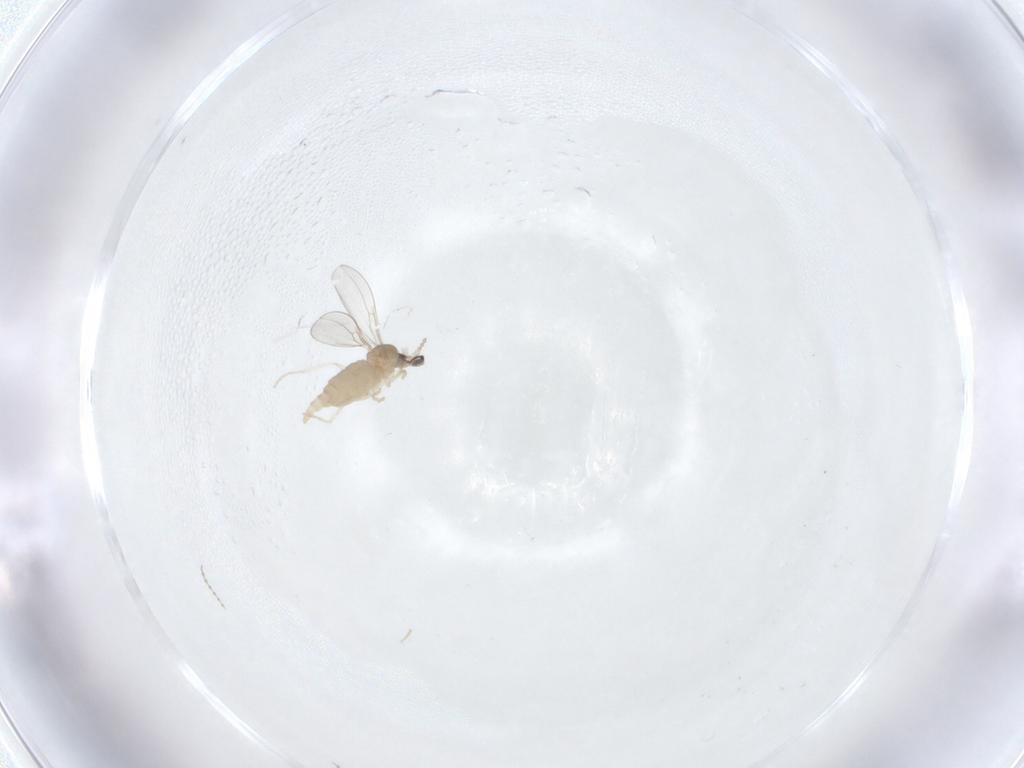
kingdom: Animalia
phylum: Arthropoda
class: Insecta
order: Diptera
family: Cecidomyiidae
